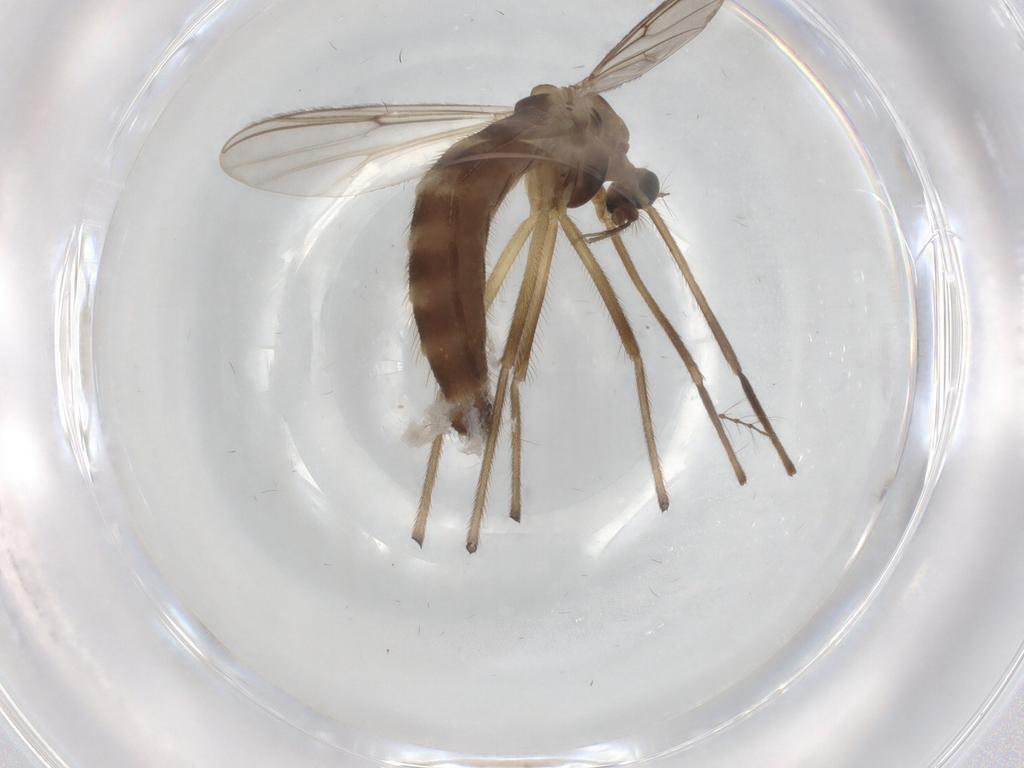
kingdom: Animalia
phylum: Arthropoda
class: Insecta
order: Diptera
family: Chironomidae
